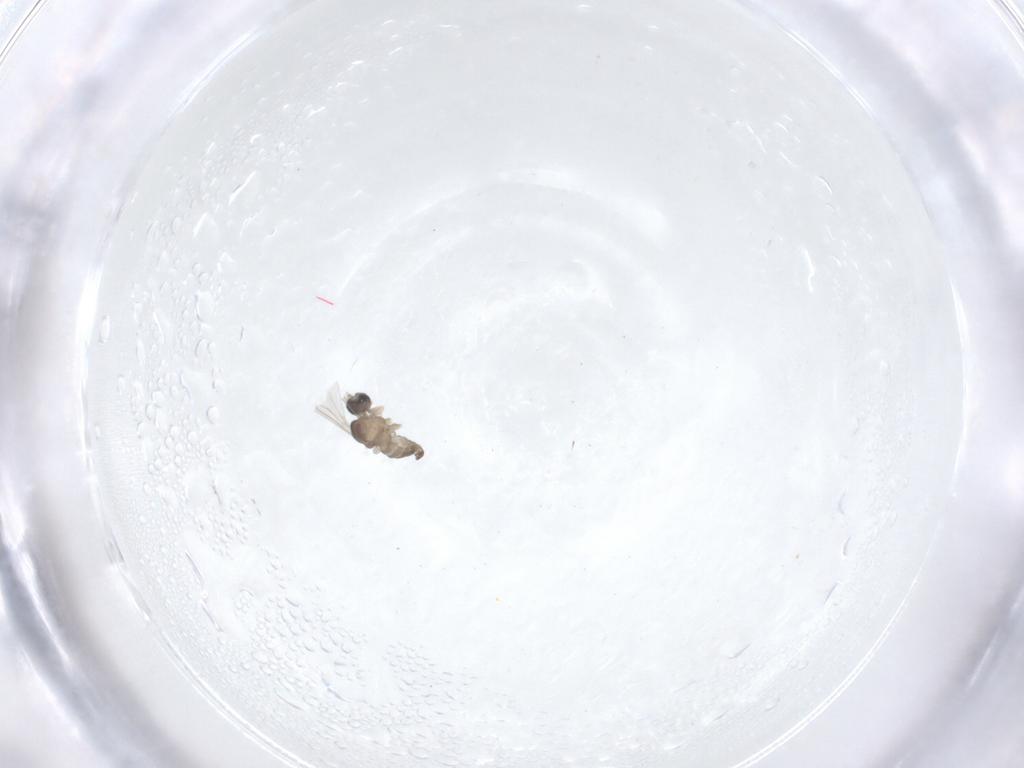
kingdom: Animalia
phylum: Arthropoda
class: Insecta
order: Diptera
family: Cecidomyiidae
